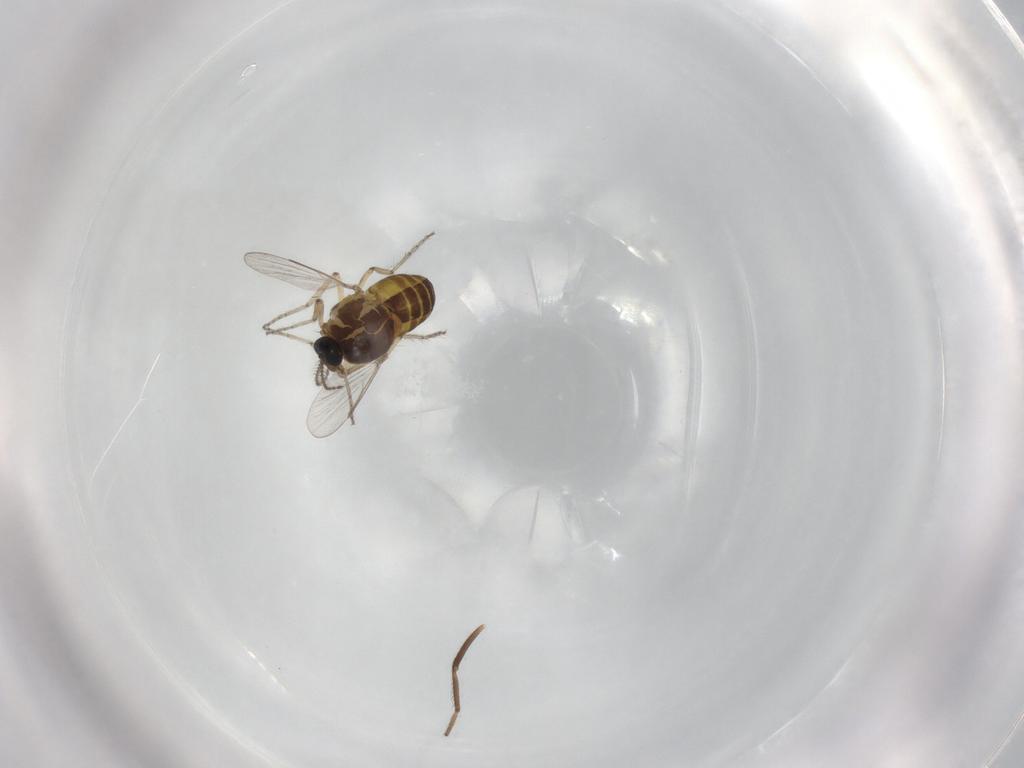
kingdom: Animalia
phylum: Arthropoda
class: Insecta
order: Diptera
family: Ceratopogonidae
